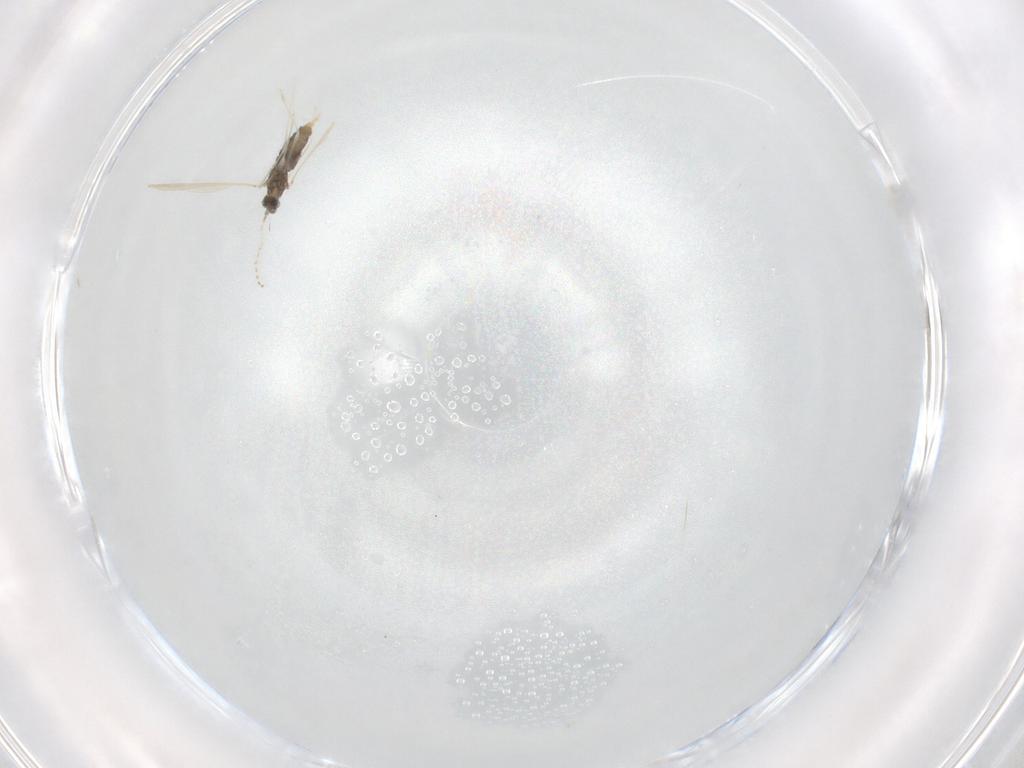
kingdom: Animalia
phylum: Arthropoda
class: Insecta
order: Diptera
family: Cecidomyiidae
